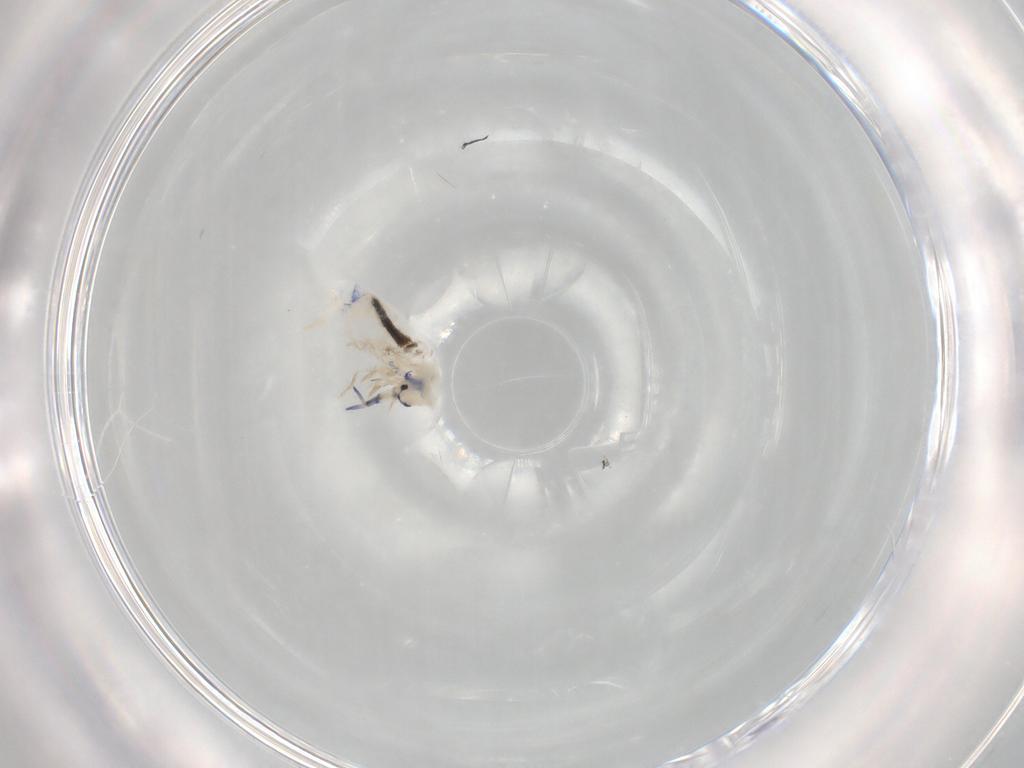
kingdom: Animalia
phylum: Arthropoda
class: Collembola
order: Entomobryomorpha
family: Entomobryidae
